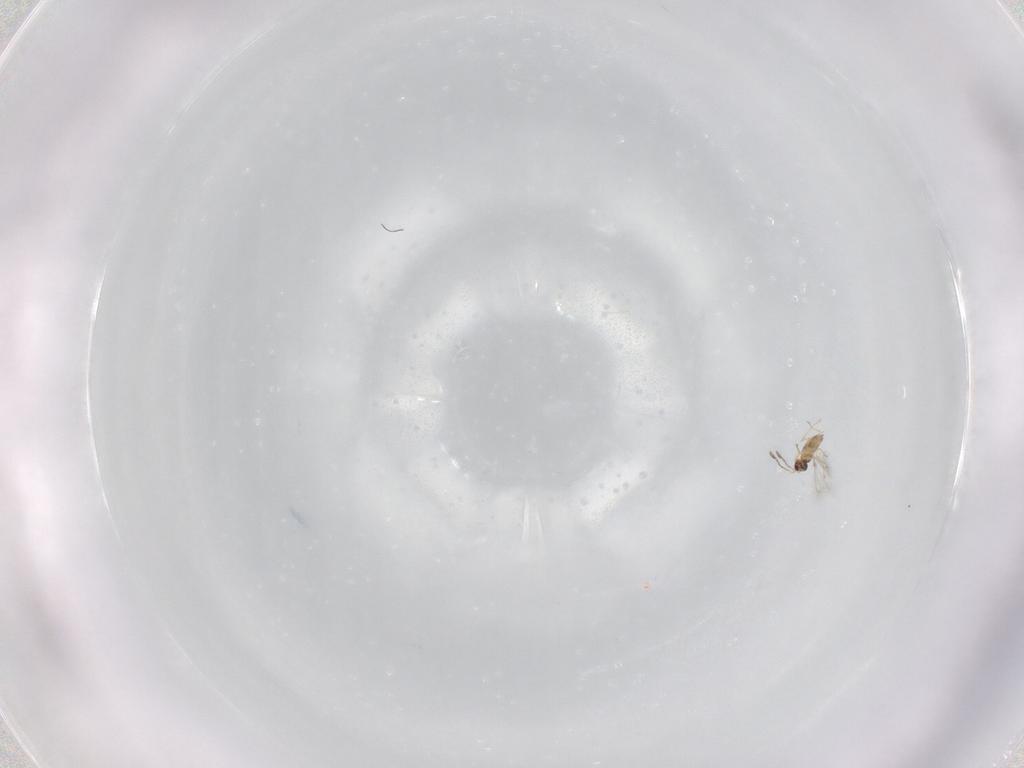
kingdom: Animalia
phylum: Arthropoda
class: Insecta
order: Hymenoptera
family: Mymaridae
